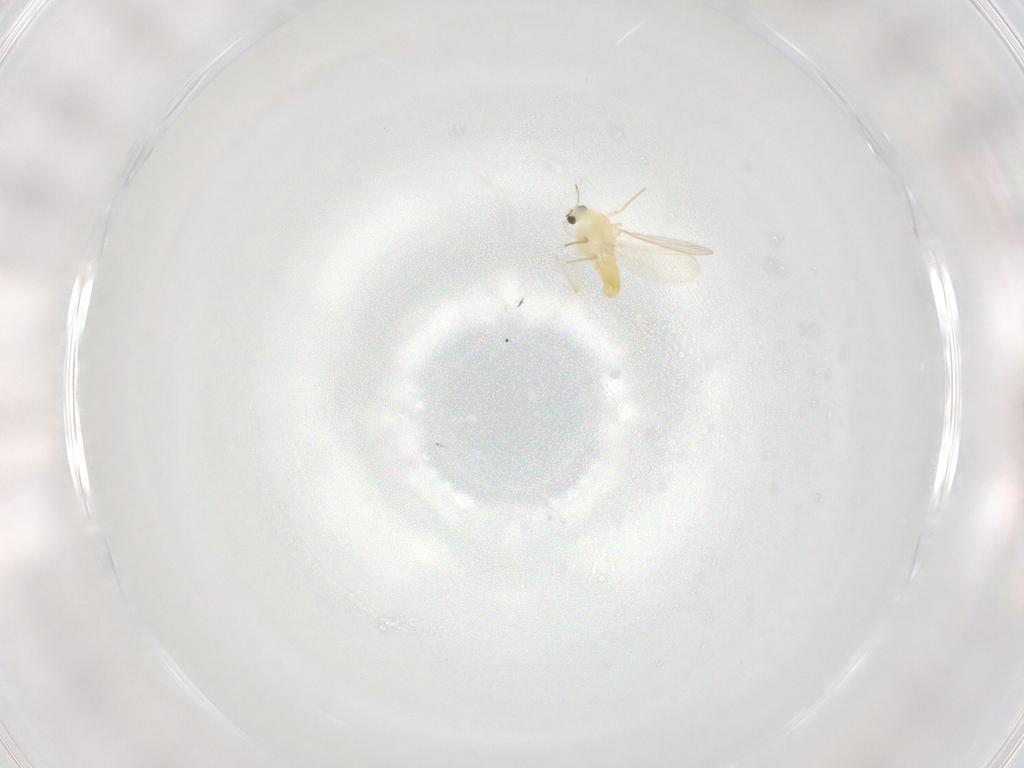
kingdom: Animalia
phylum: Arthropoda
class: Insecta
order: Diptera
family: Chironomidae
